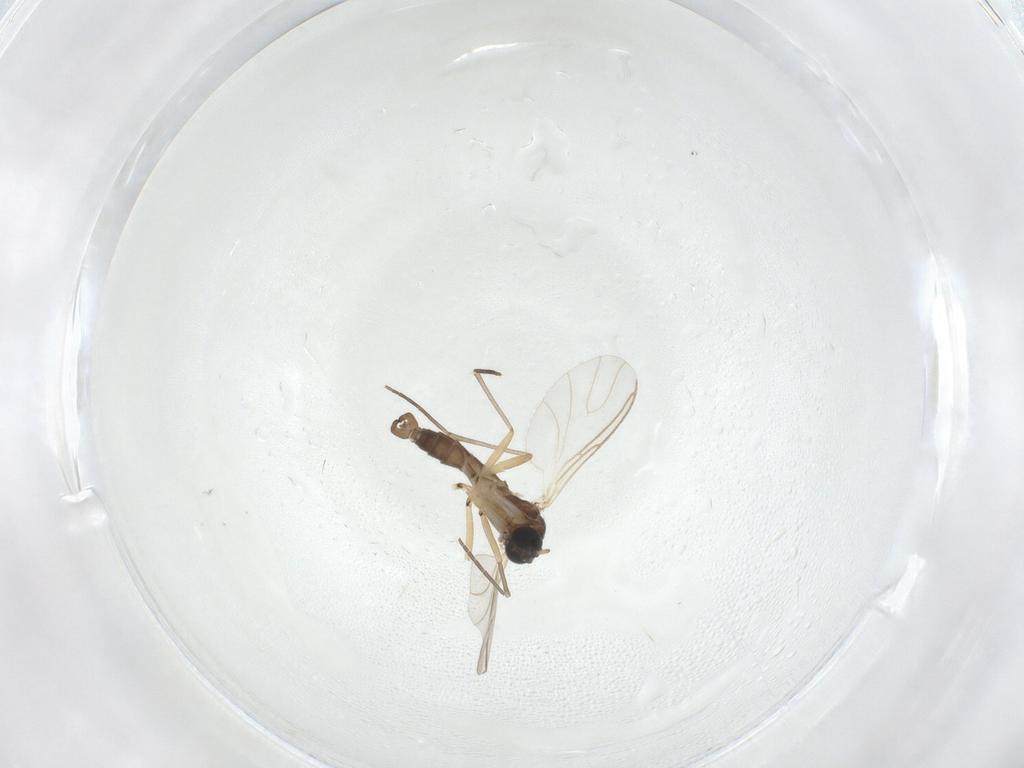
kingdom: Animalia
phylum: Arthropoda
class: Insecta
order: Diptera
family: Sciaridae
